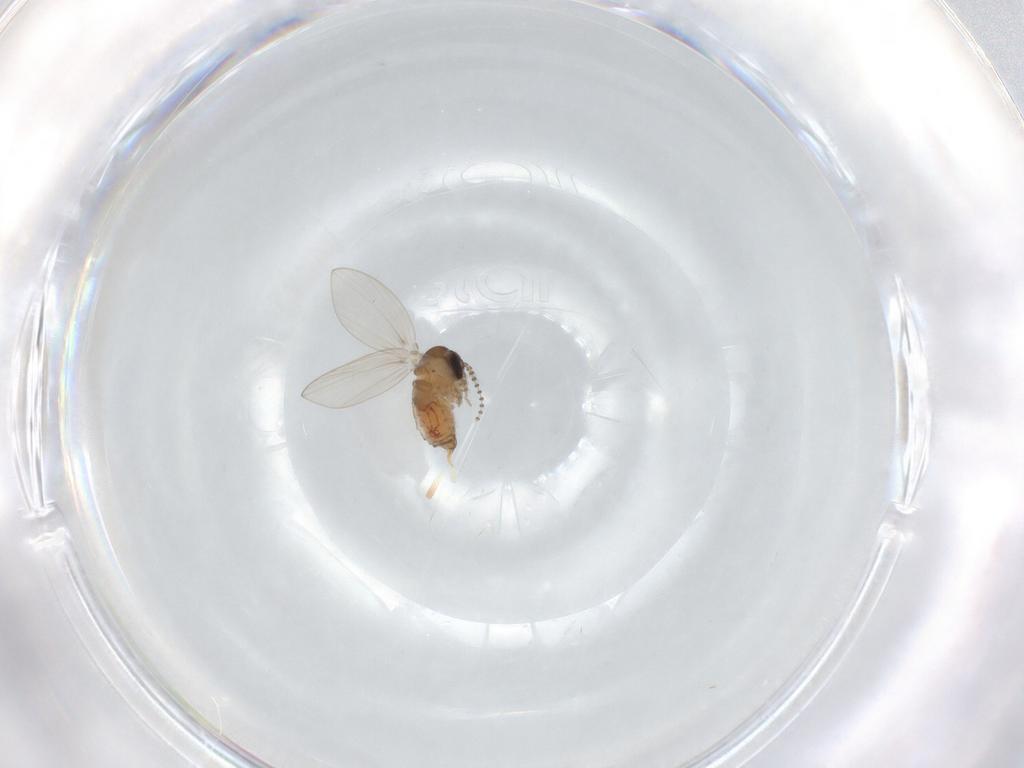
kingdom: Animalia
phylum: Arthropoda
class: Insecta
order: Diptera
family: Psychodidae
